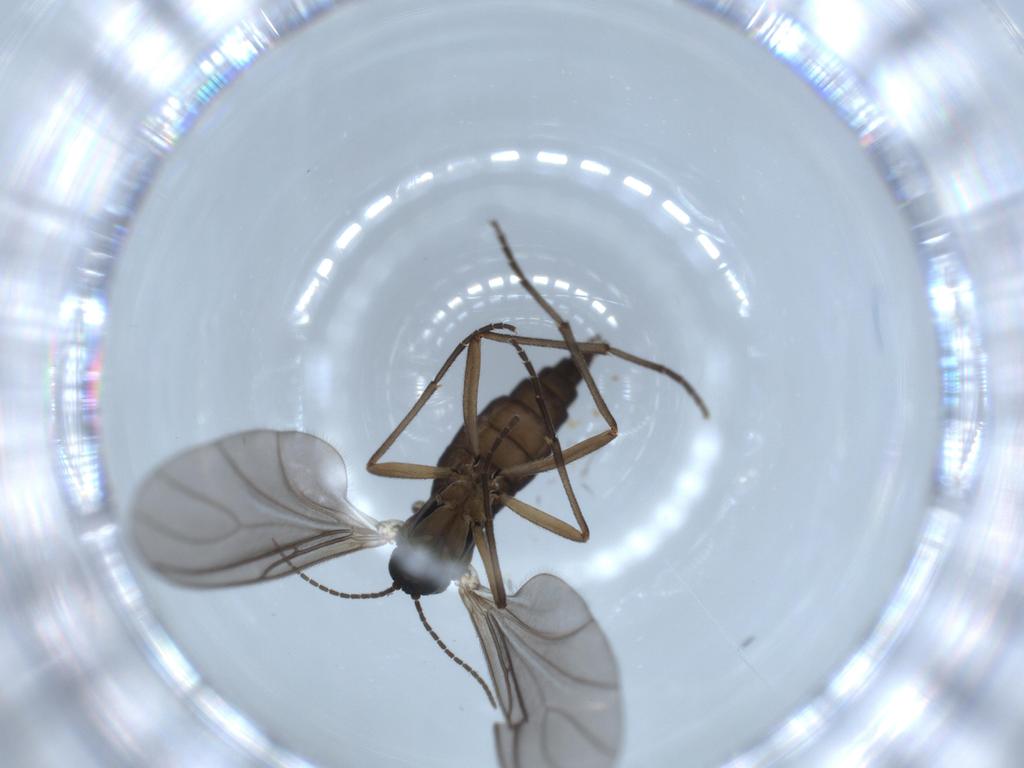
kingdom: Animalia
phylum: Arthropoda
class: Insecta
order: Diptera
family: Sciaridae
